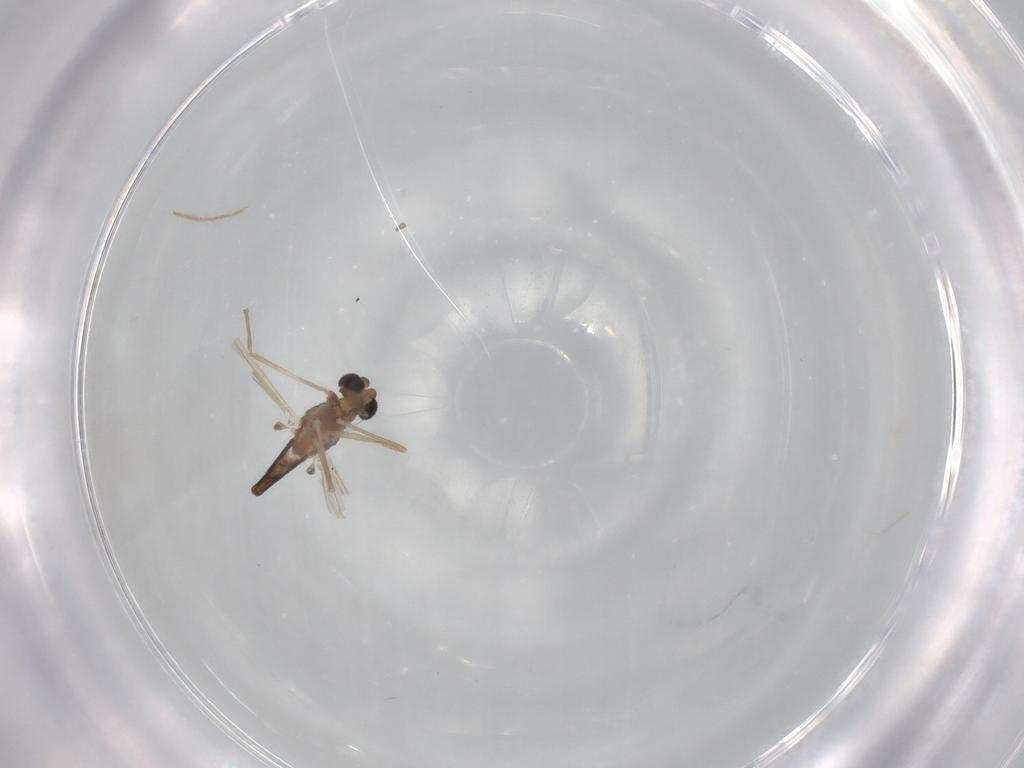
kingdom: Animalia
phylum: Arthropoda
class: Insecta
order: Diptera
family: Chironomidae
